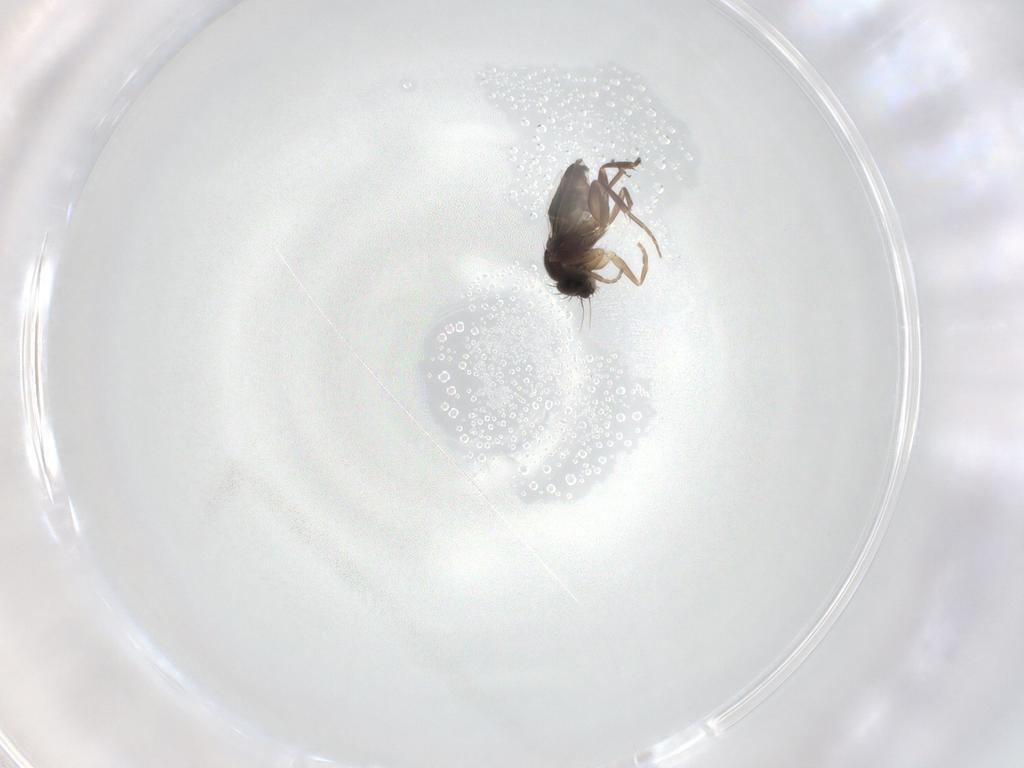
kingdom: Animalia
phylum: Arthropoda
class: Insecta
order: Diptera
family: Phoridae
